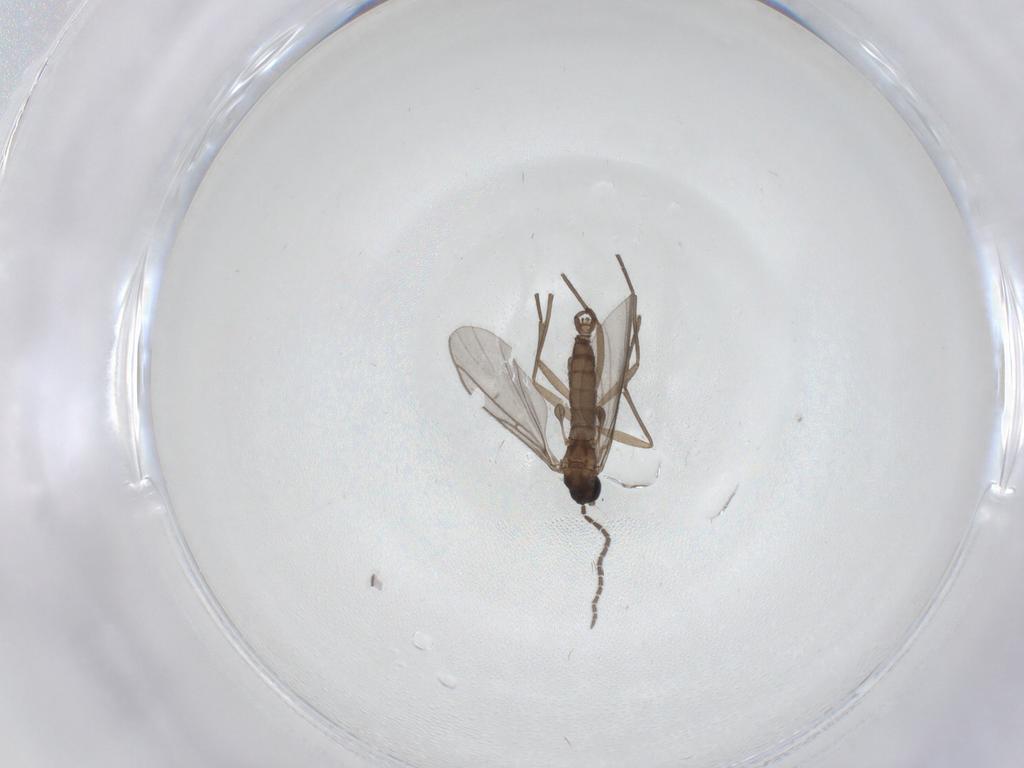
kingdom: Animalia
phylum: Arthropoda
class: Insecta
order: Diptera
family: Sciaridae
